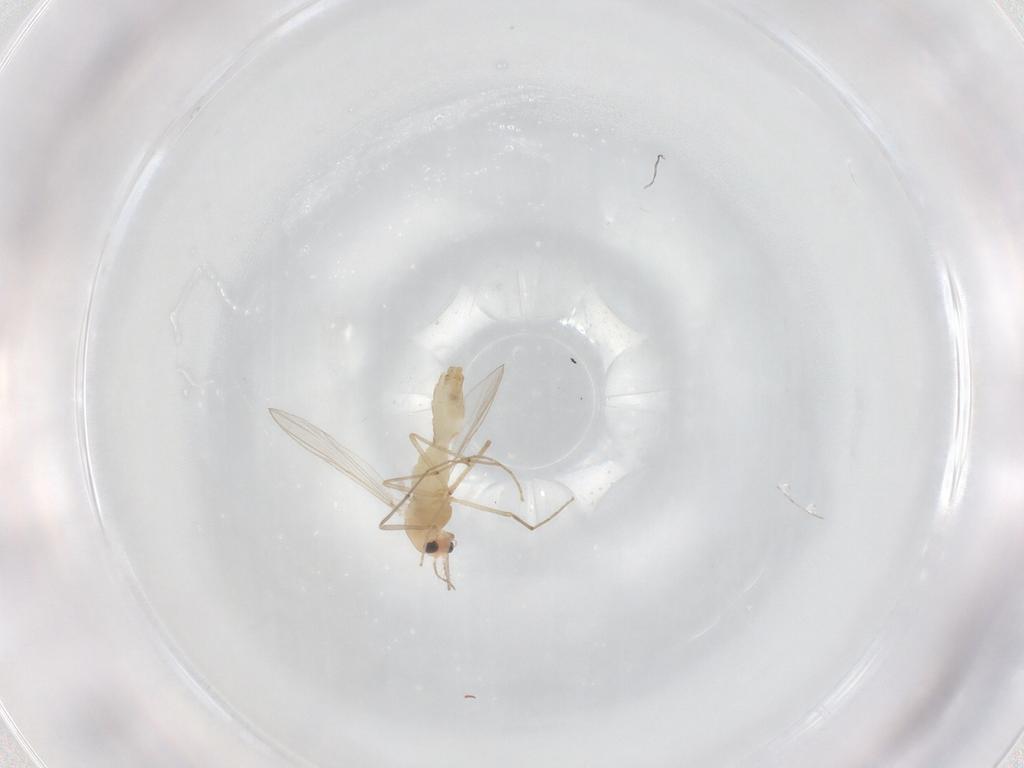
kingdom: Animalia
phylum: Arthropoda
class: Insecta
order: Diptera
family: Chironomidae
